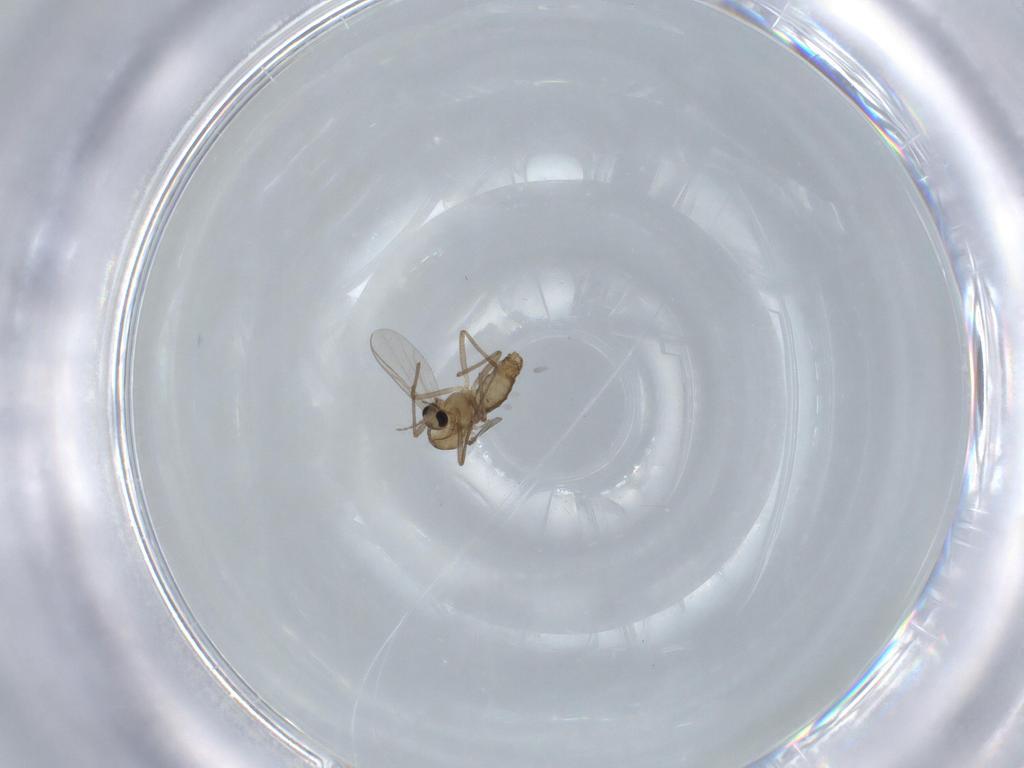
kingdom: Animalia
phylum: Arthropoda
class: Insecta
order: Diptera
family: Chironomidae
